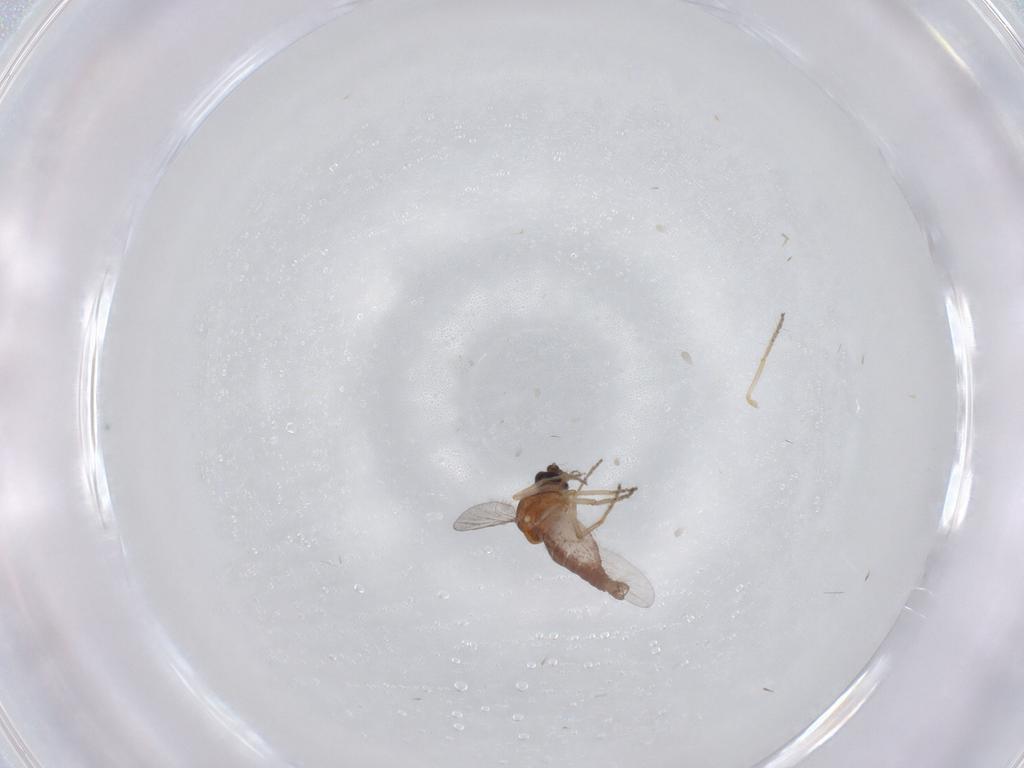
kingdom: Animalia
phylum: Arthropoda
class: Insecta
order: Diptera
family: Ceratopogonidae
